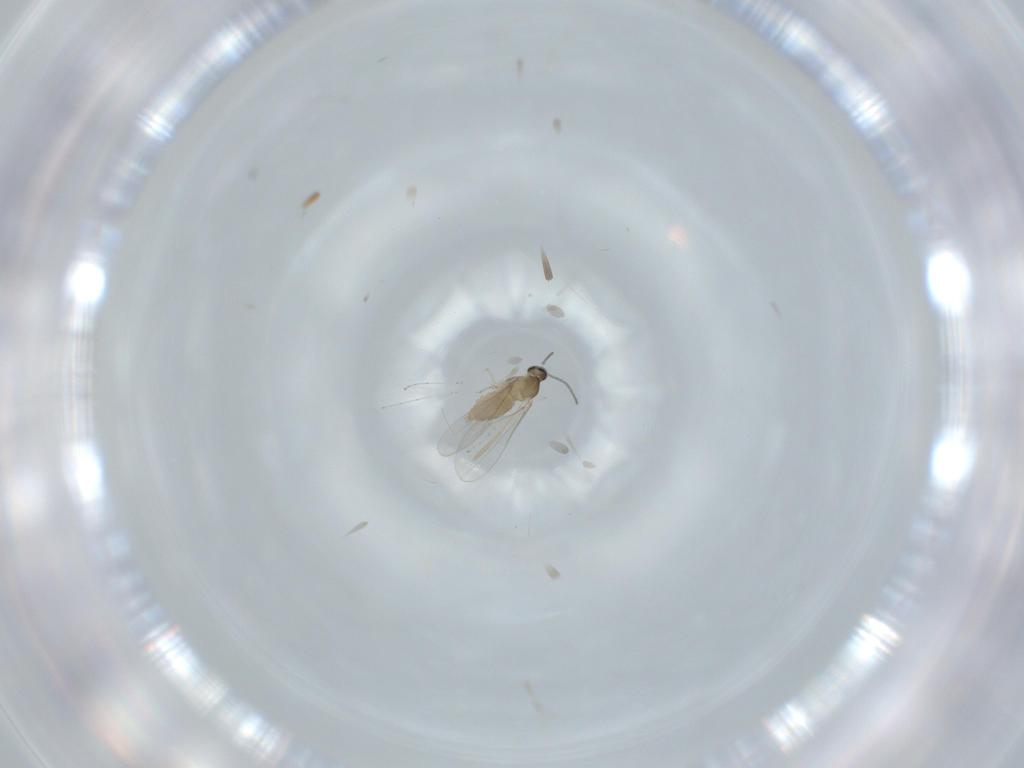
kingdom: Animalia
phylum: Arthropoda
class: Insecta
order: Diptera
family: Cecidomyiidae
